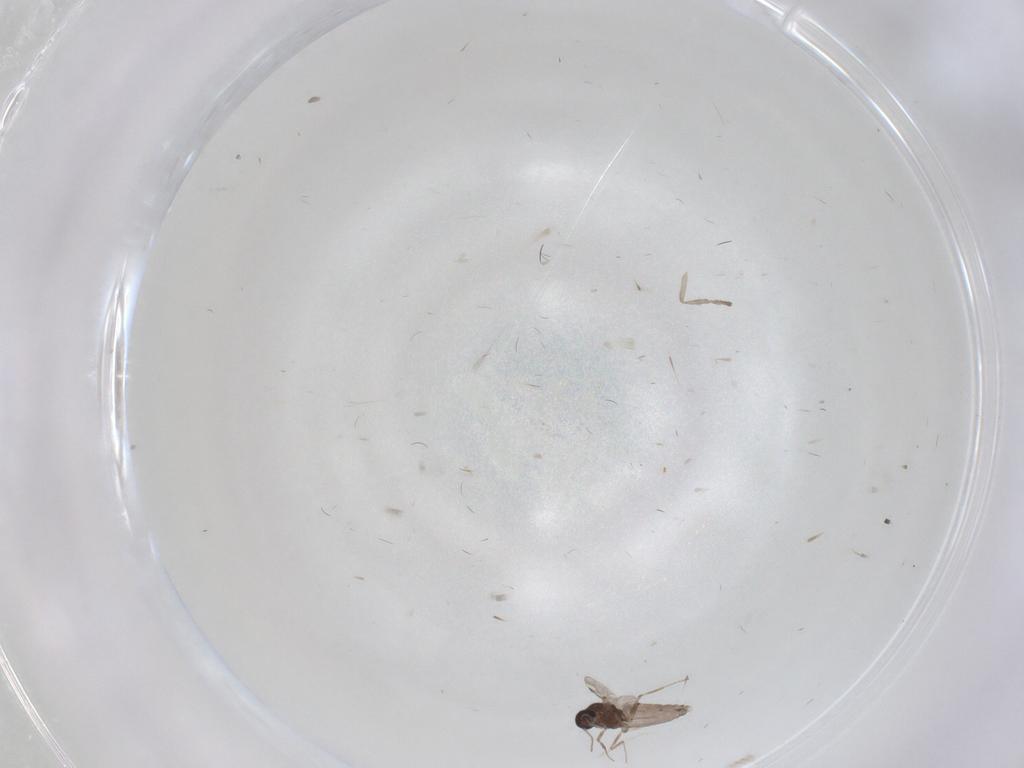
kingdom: Animalia
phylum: Arthropoda
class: Insecta
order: Diptera
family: Psychodidae
